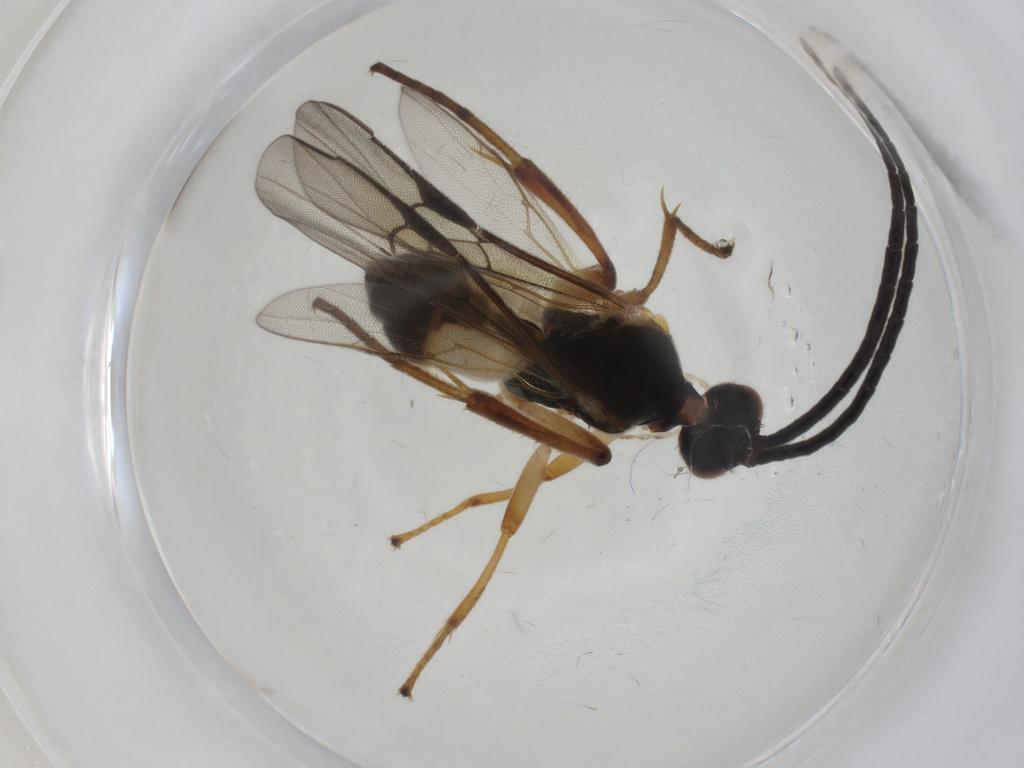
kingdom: Animalia
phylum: Arthropoda
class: Insecta
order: Hymenoptera
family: Braconidae
